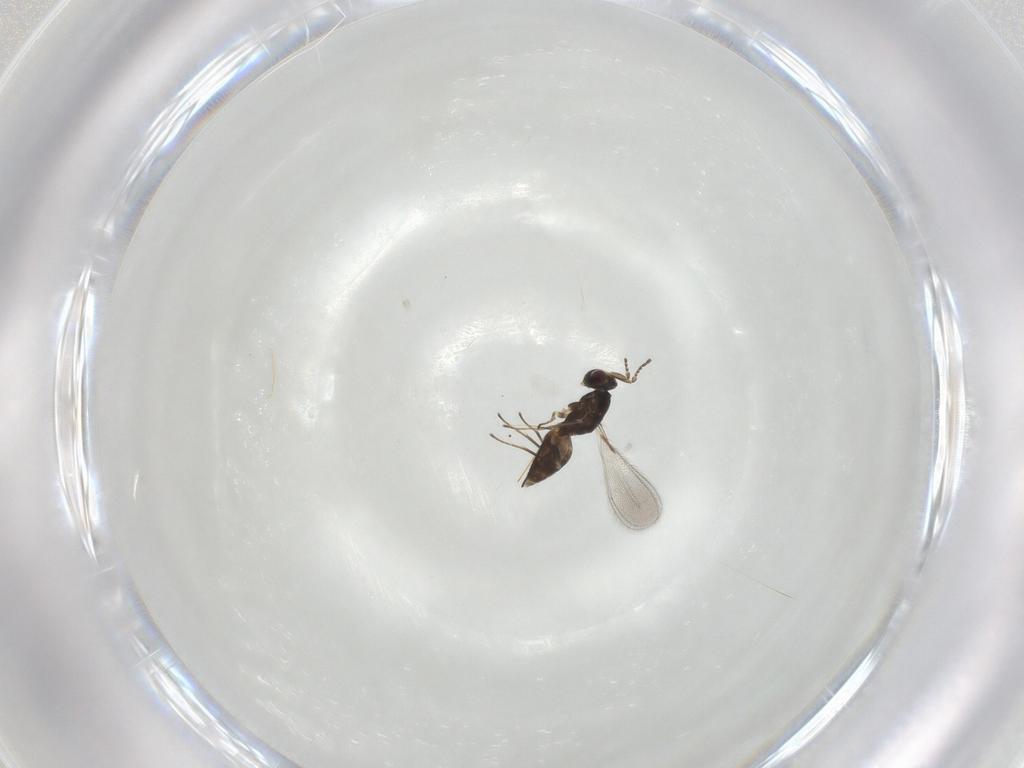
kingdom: Animalia
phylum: Arthropoda
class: Insecta
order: Hymenoptera
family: Mymaridae
